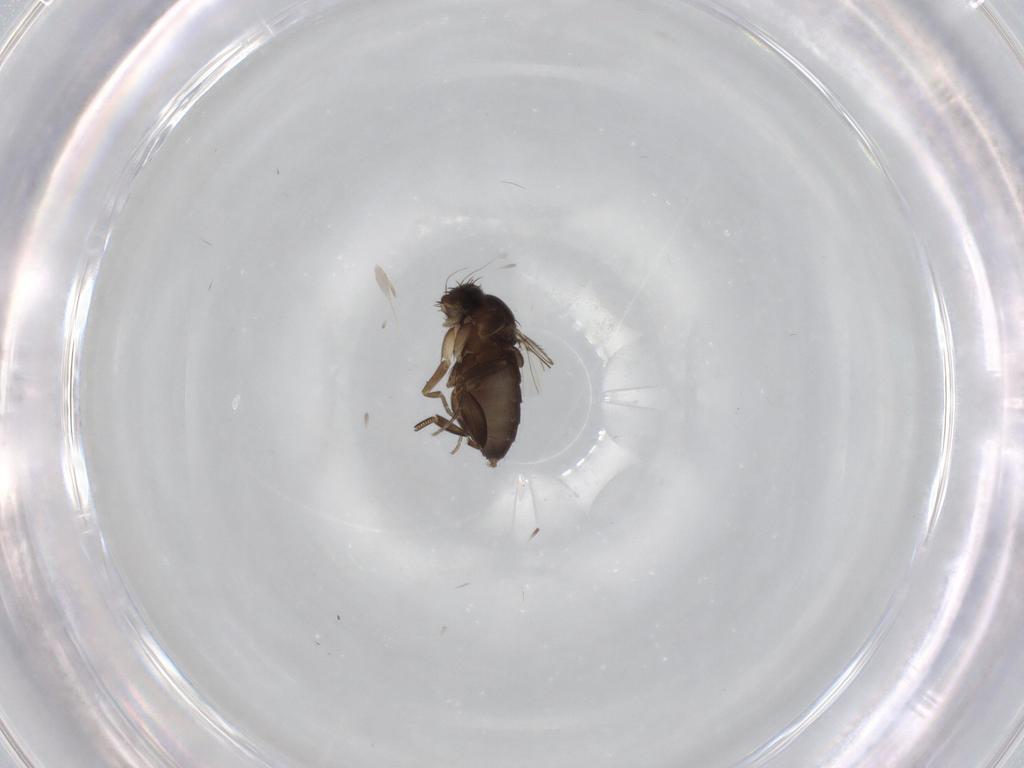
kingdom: Animalia
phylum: Arthropoda
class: Insecta
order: Diptera
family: Phoridae
